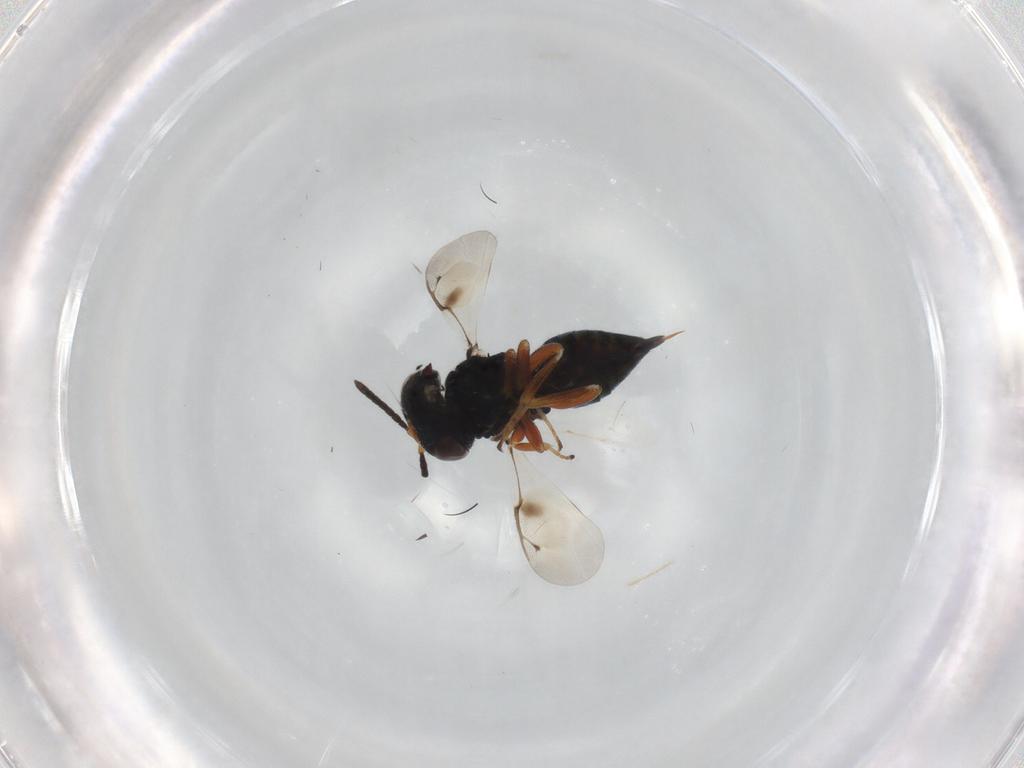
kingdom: Animalia
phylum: Arthropoda
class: Insecta
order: Hymenoptera
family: Pteromalidae
